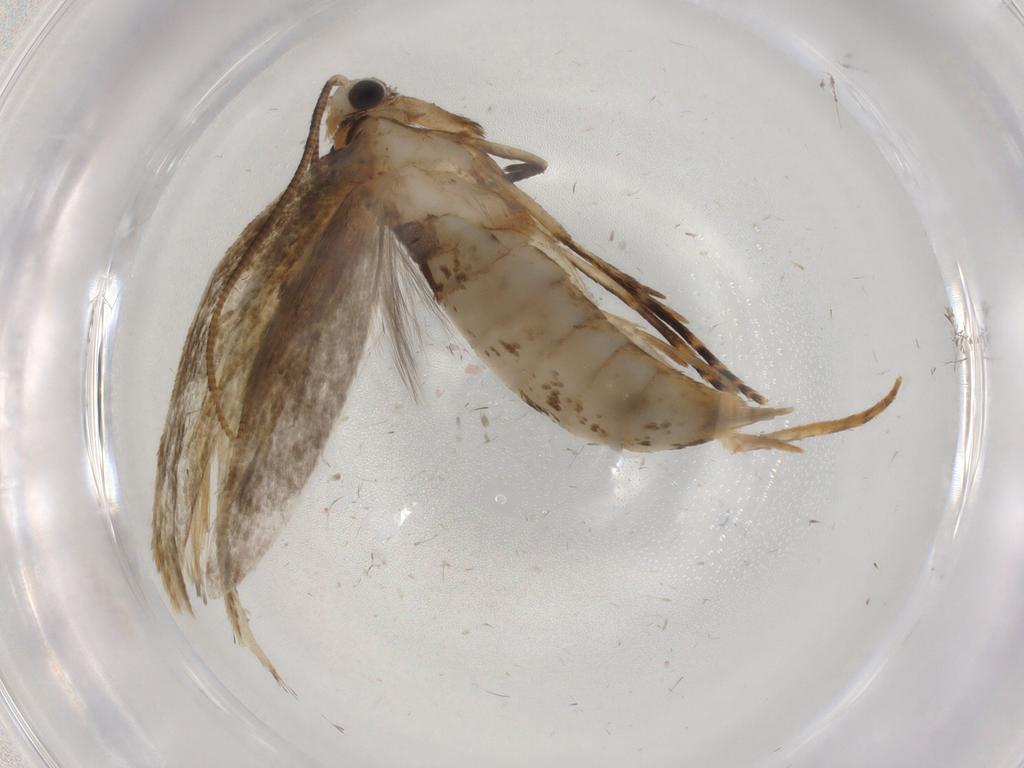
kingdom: Animalia
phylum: Arthropoda
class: Insecta
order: Lepidoptera
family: Tineidae
